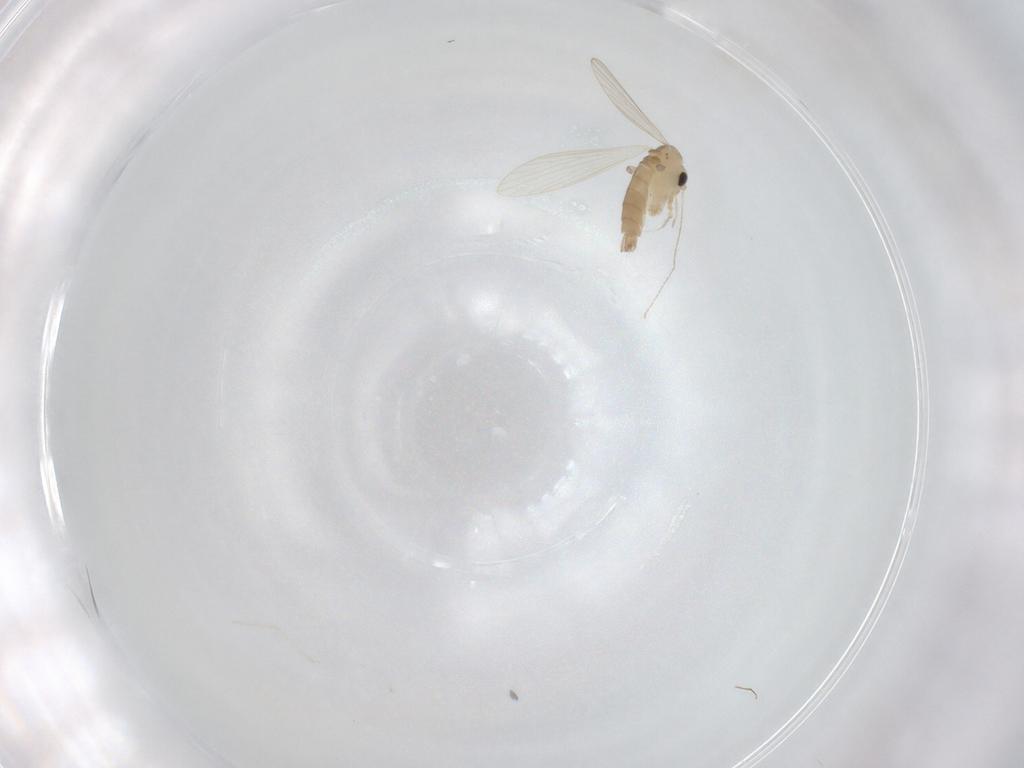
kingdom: Animalia
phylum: Arthropoda
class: Insecta
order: Diptera
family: Psychodidae
